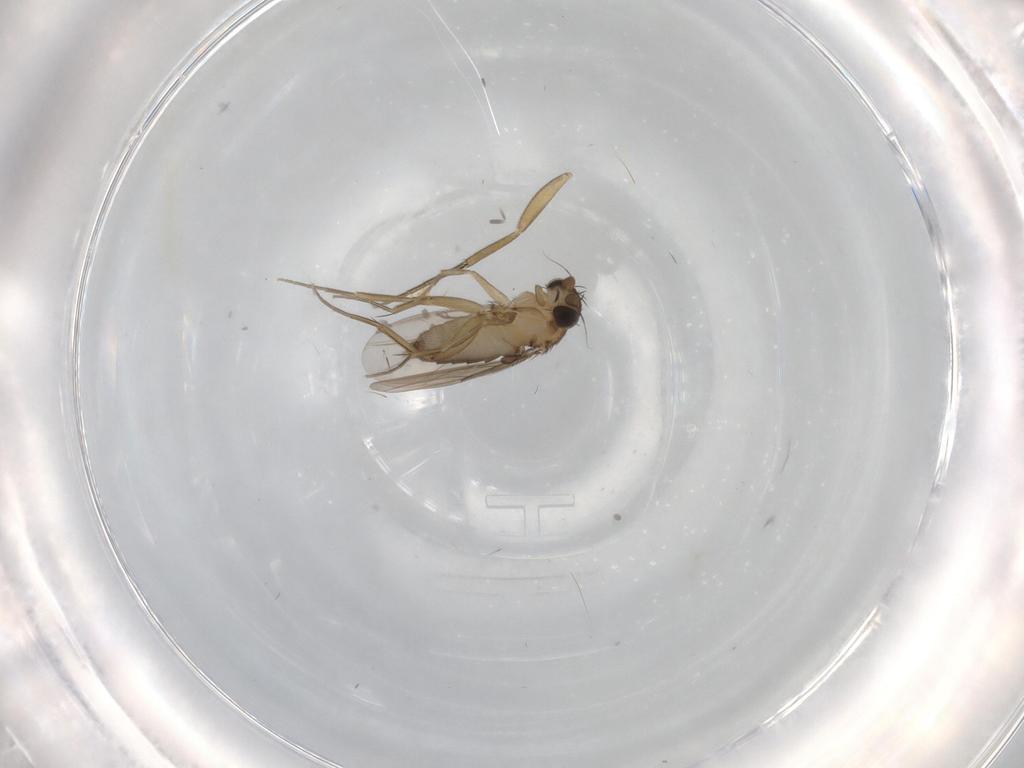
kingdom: Animalia
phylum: Arthropoda
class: Insecta
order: Diptera
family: Phoridae
